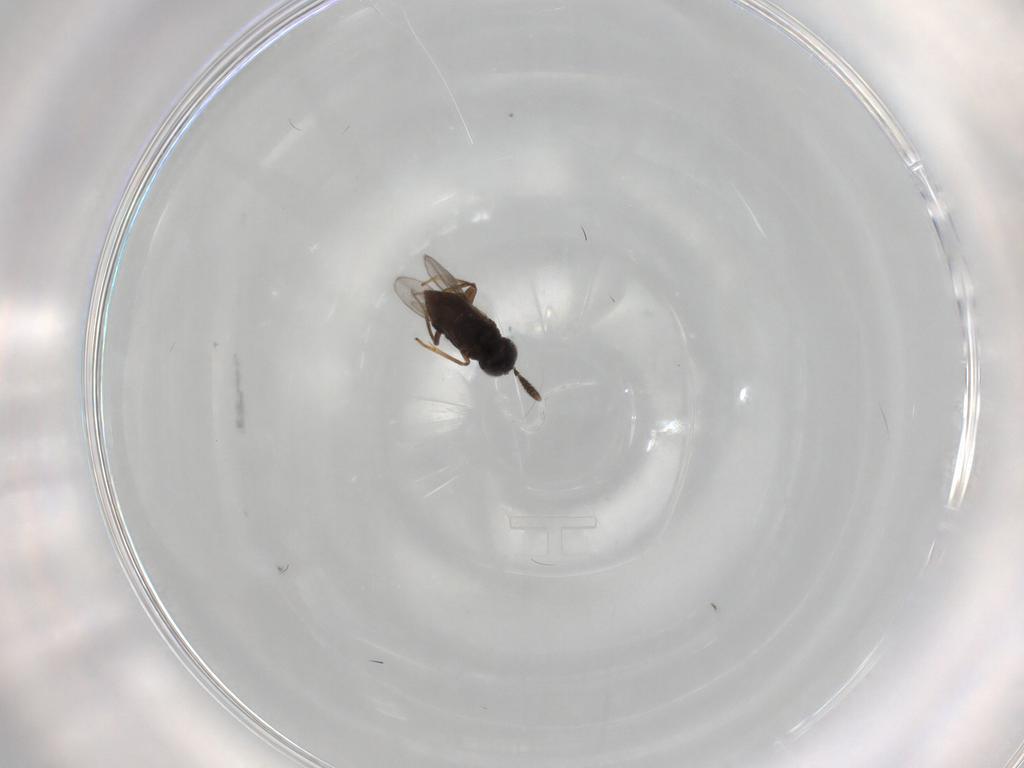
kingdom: Animalia
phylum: Arthropoda
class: Insecta
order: Hymenoptera
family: Encyrtidae
